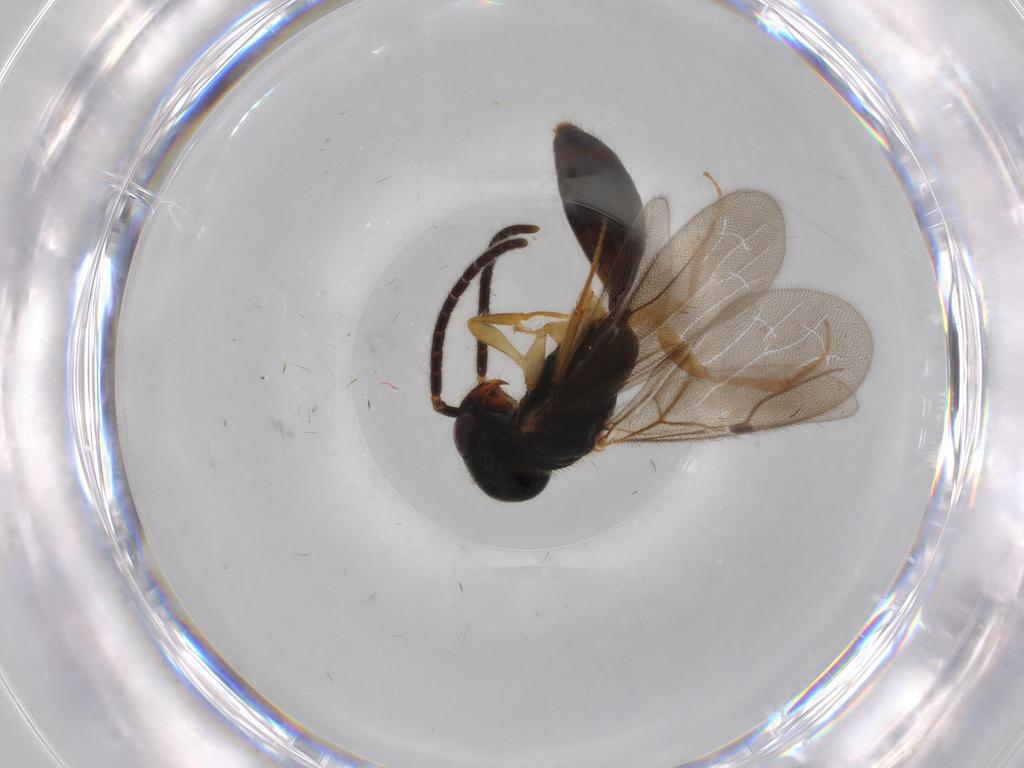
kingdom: Animalia
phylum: Arthropoda
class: Insecta
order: Hymenoptera
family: Bethylidae
